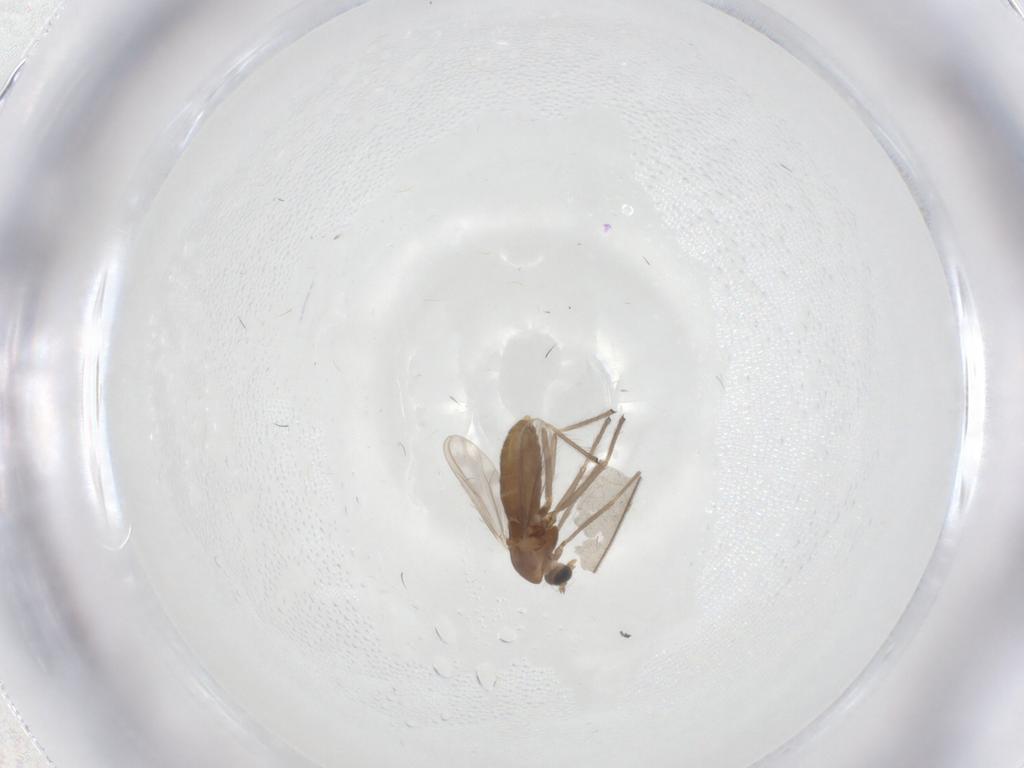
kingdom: Animalia
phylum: Arthropoda
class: Insecta
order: Diptera
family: Chironomidae
